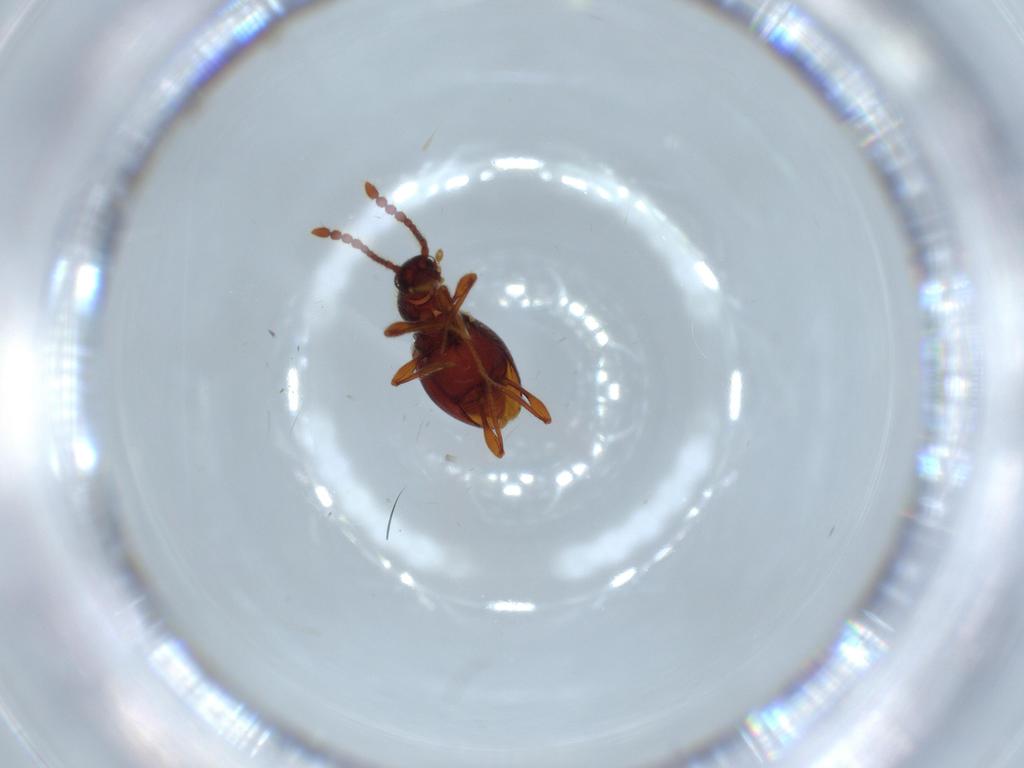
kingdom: Animalia
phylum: Arthropoda
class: Insecta
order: Coleoptera
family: Staphylinidae
